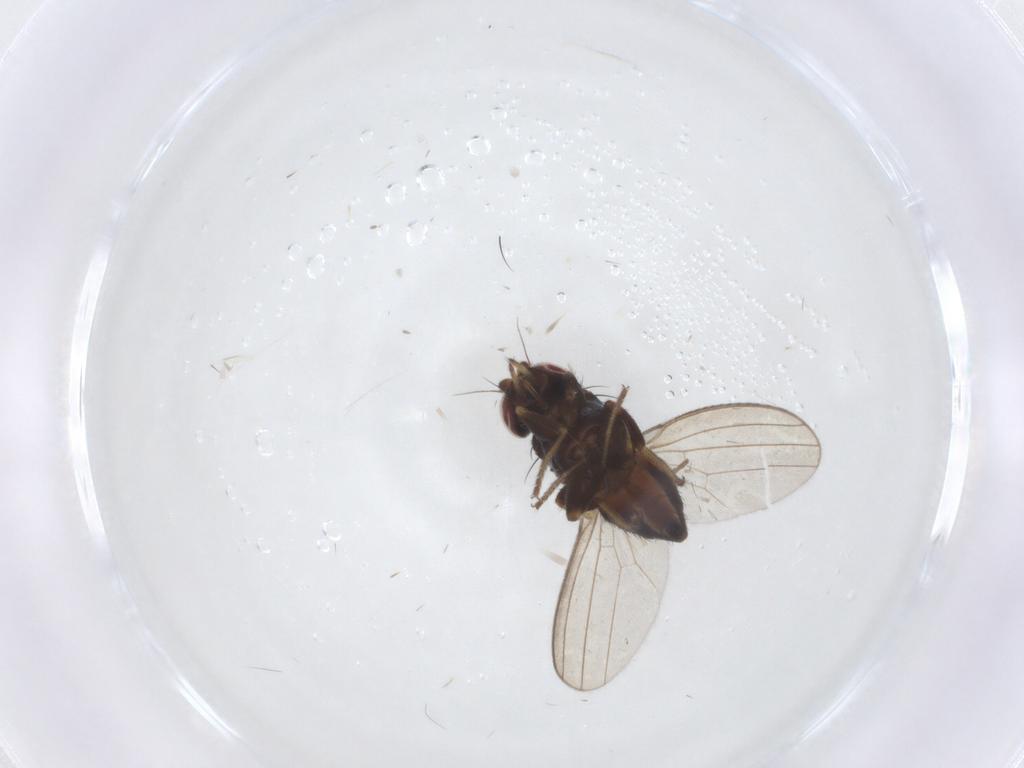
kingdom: Animalia
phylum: Arthropoda
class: Insecta
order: Diptera
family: Milichiidae
